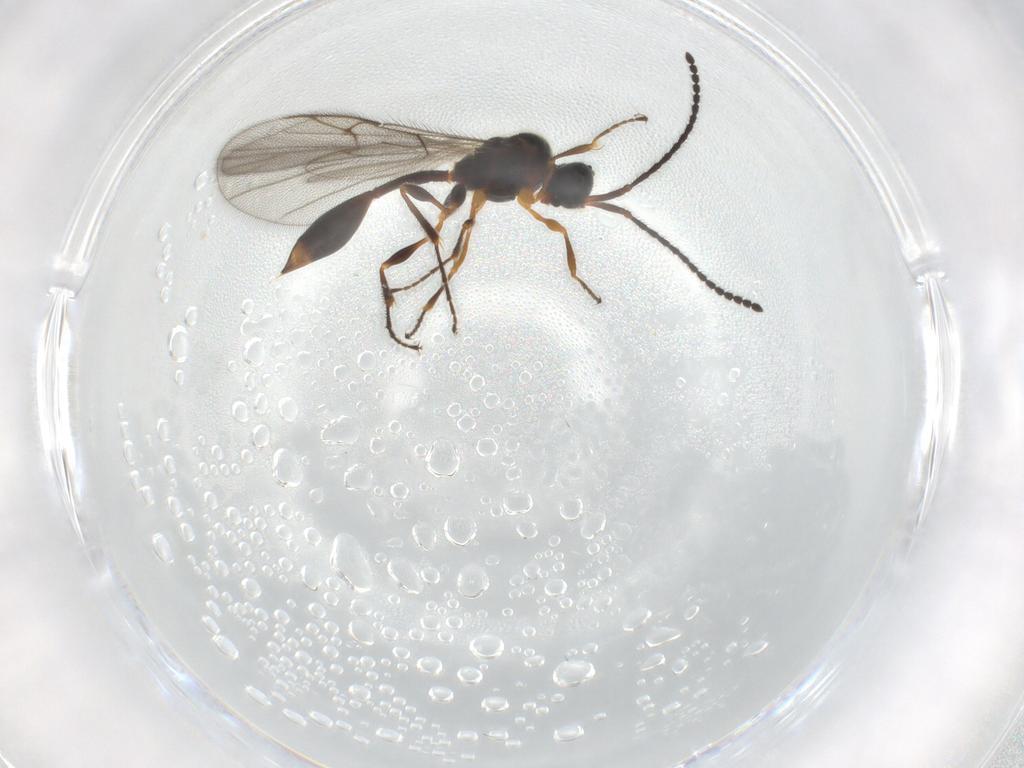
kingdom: Animalia
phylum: Arthropoda
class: Insecta
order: Hymenoptera
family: Diapriidae
